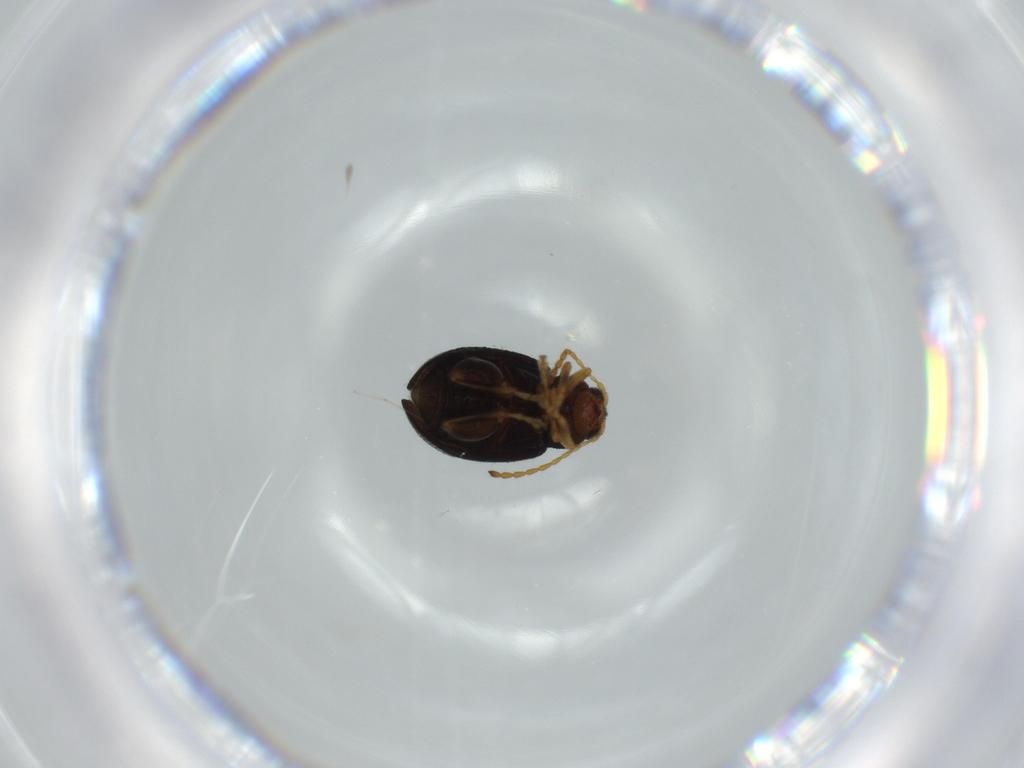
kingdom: Animalia
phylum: Arthropoda
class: Insecta
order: Coleoptera
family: Chrysomelidae
